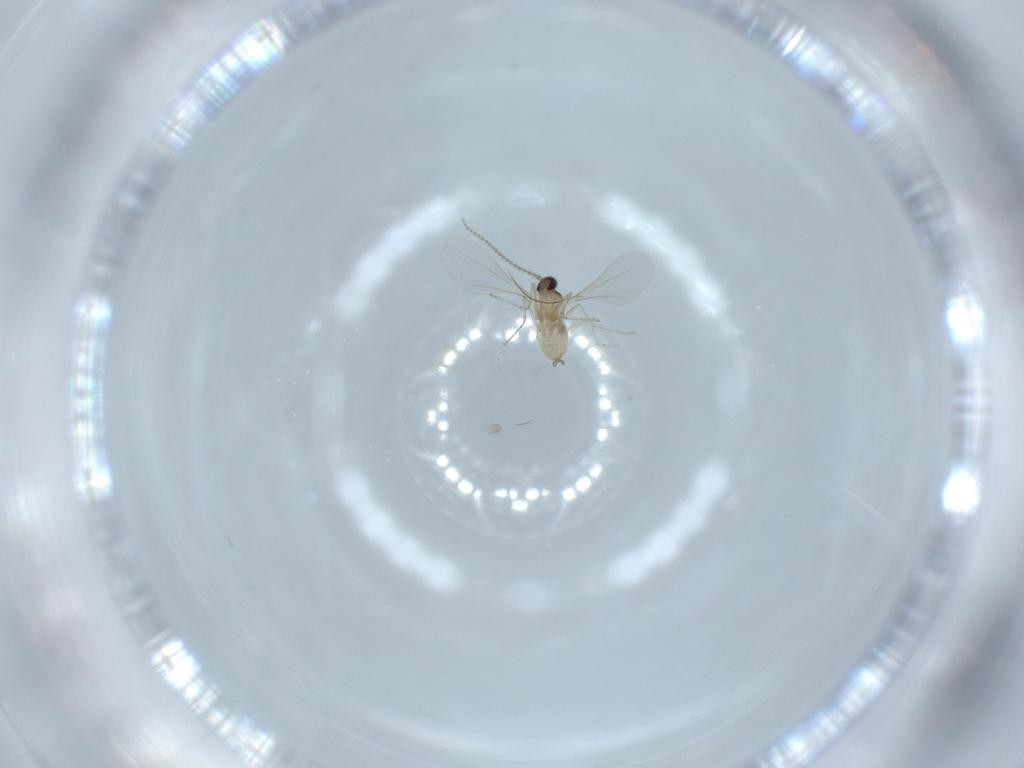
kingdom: Animalia
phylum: Arthropoda
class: Insecta
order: Diptera
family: Cecidomyiidae
